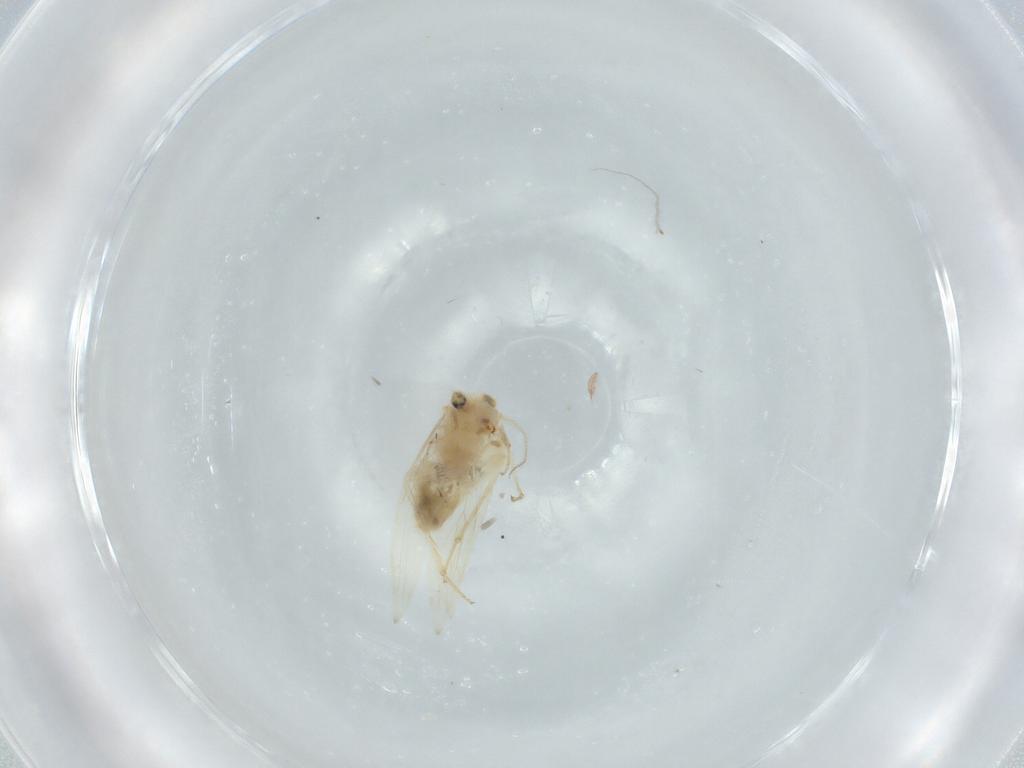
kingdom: Animalia
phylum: Arthropoda
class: Insecta
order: Psocodea
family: Lepidopsocidae
